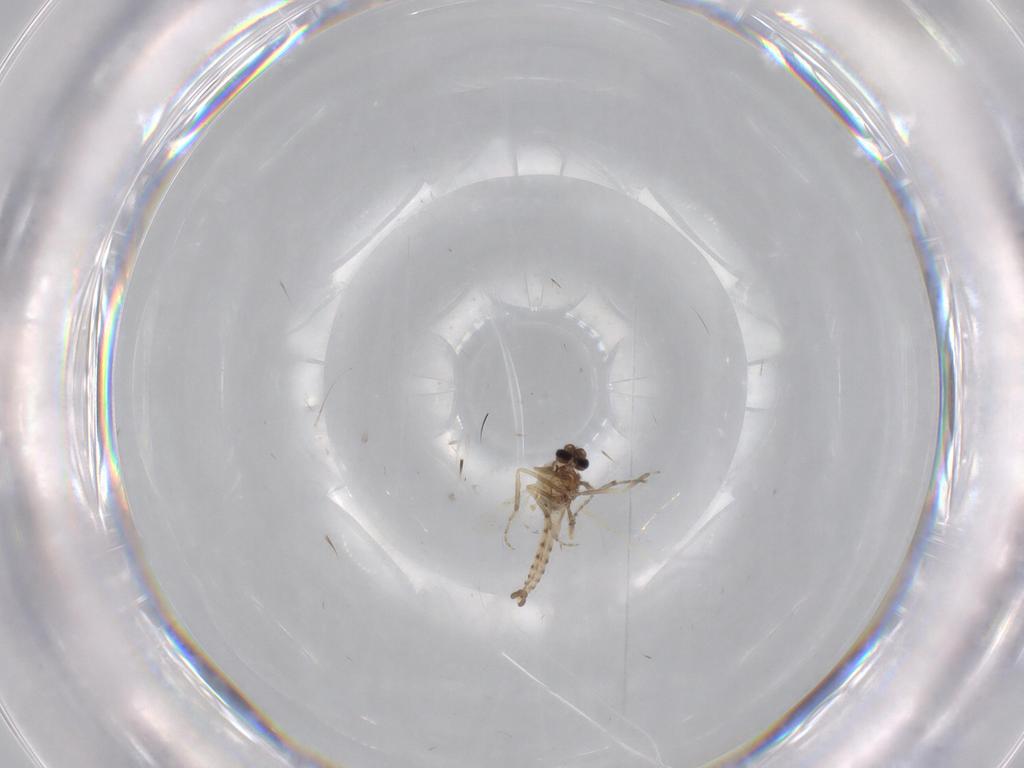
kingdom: Animalia
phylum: Arthropoda
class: Insecta
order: Diptera
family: Ceratopogonidae
